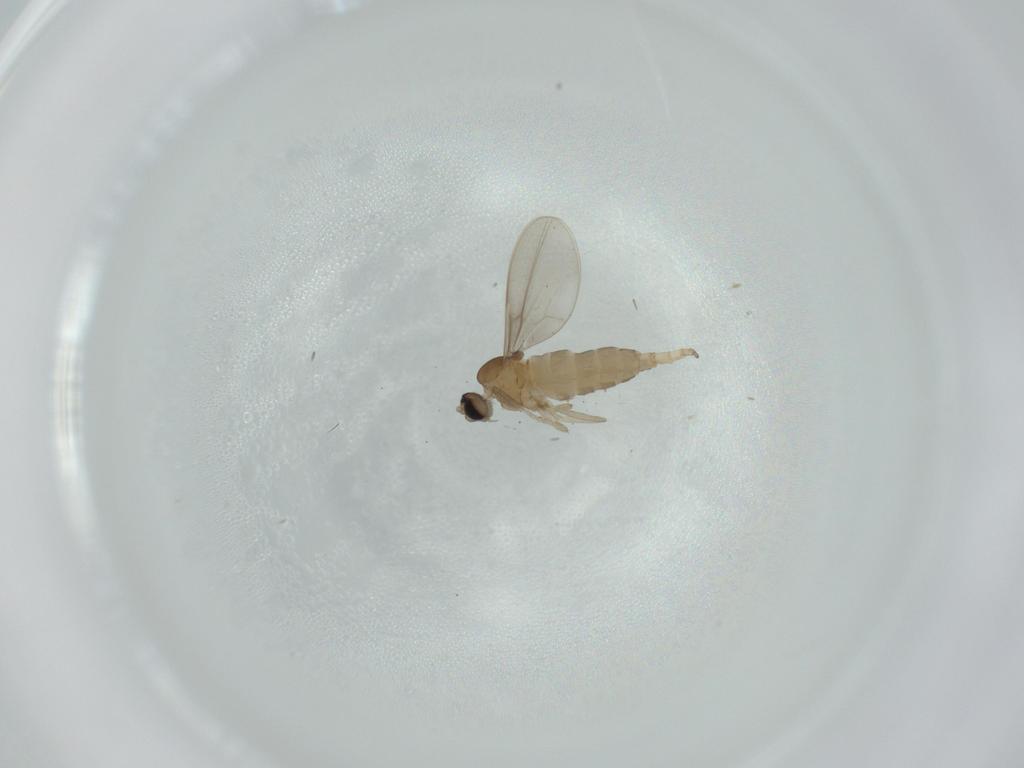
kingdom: Animalia
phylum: Arthropoda
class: Insecta
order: Diptera
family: Cecidomyiidae
